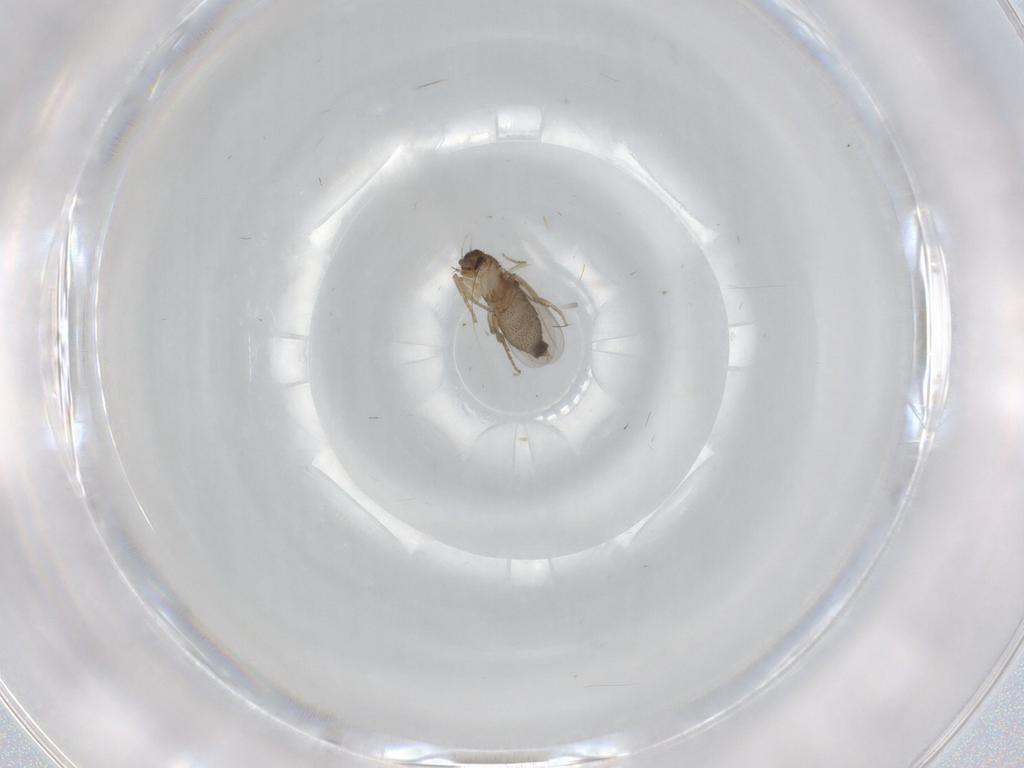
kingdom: Animalia
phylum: Arthropoda
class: Insecta
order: Diptera
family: Phoridae
